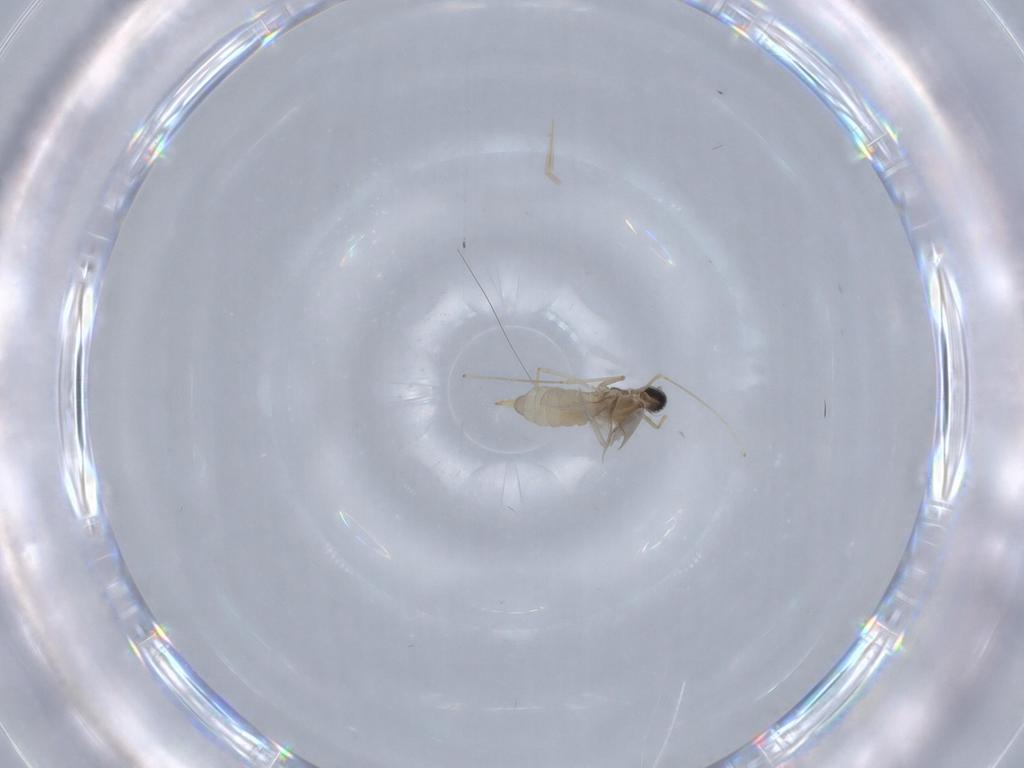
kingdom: Animalia
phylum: Arthropoda
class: Insecta
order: Diptera
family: Cecidomyiidae
